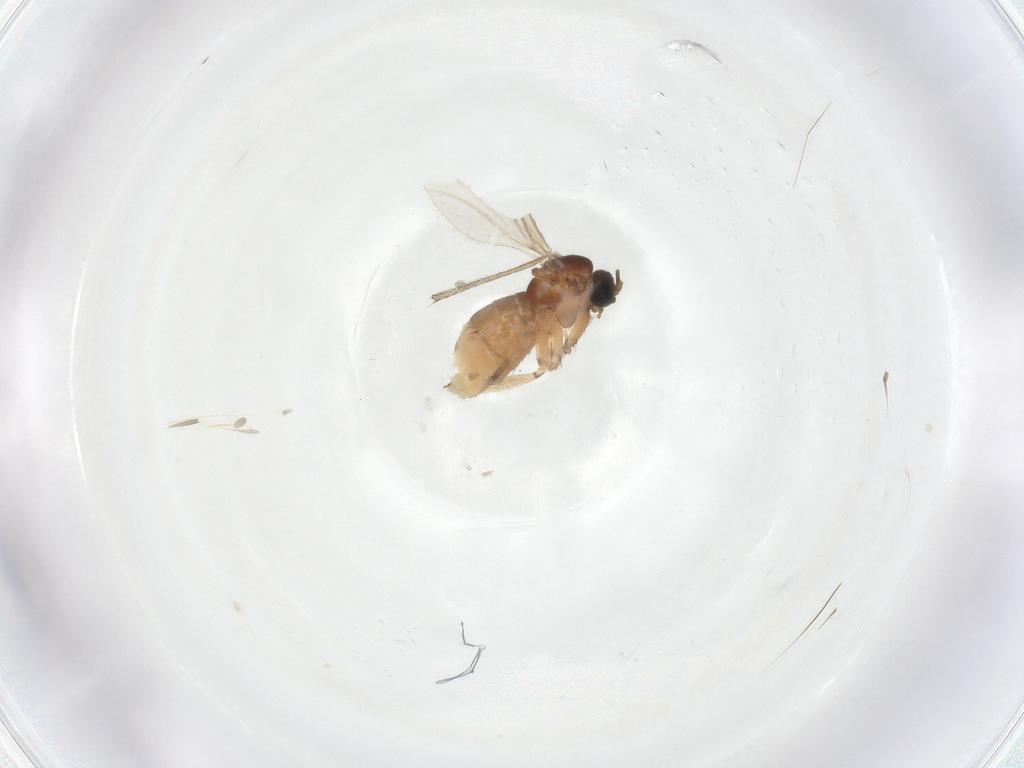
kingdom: Animalia
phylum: Arthropoda
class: Insecta
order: Diptera
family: Sciaridae
